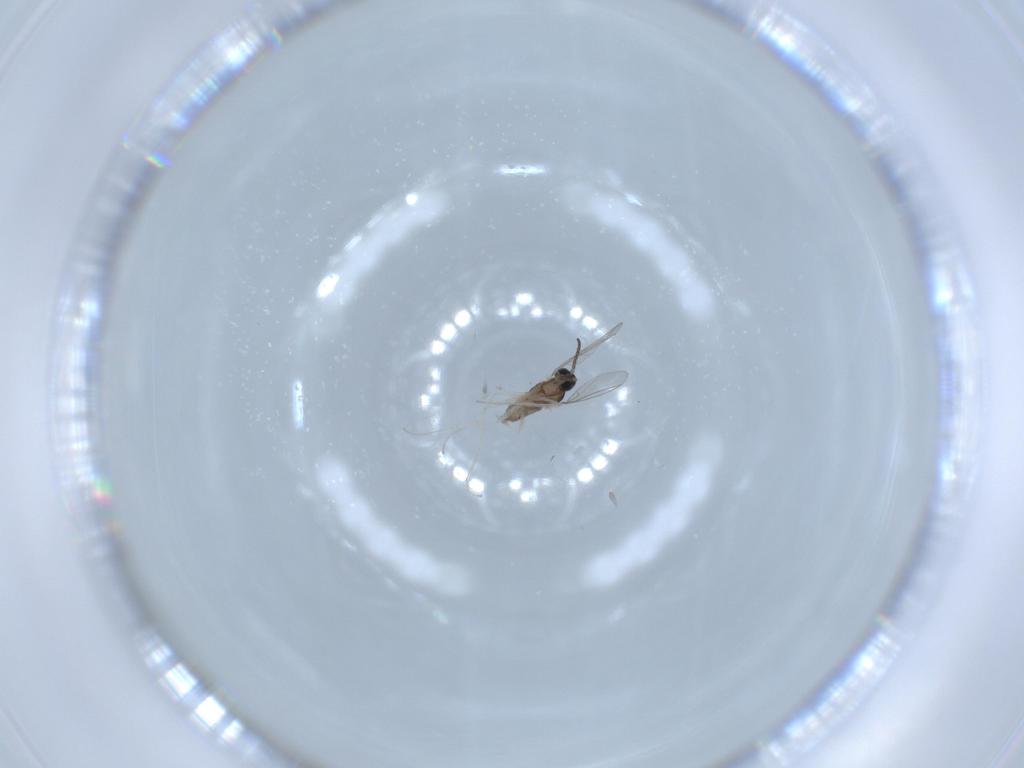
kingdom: Animalia
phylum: Arthropoda
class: Insecta
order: Diptera
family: Cecidomyiidae
